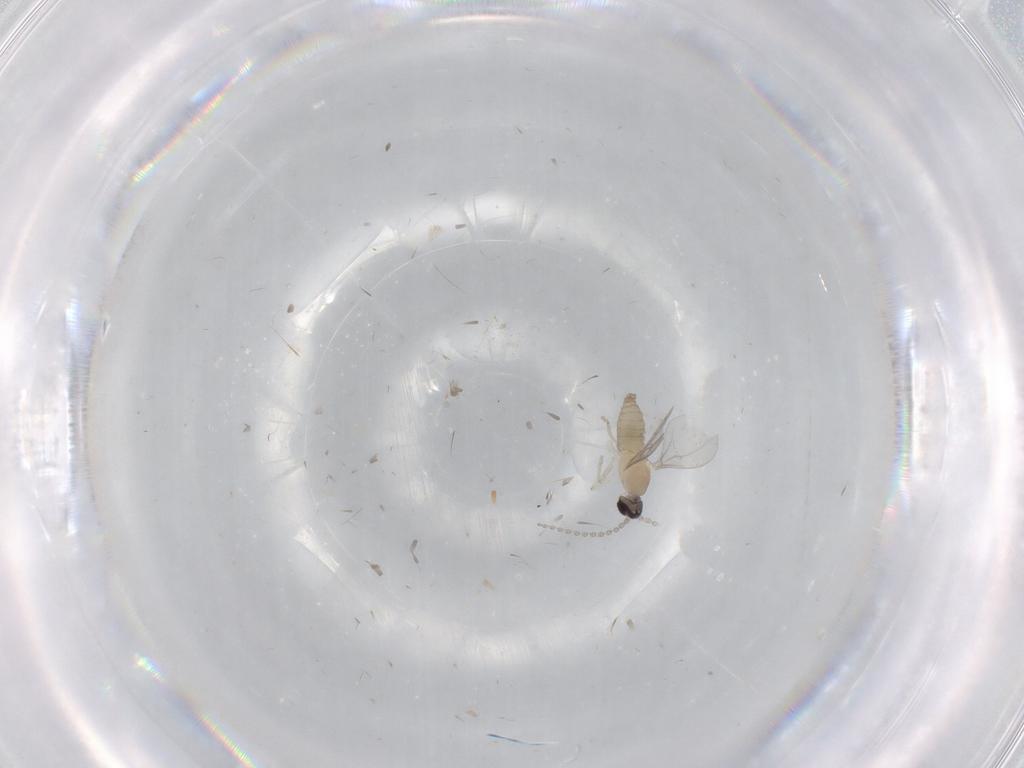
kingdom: Animalia
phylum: Arthropoda
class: Insecta
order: Diptera
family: Cecidomyiidae
